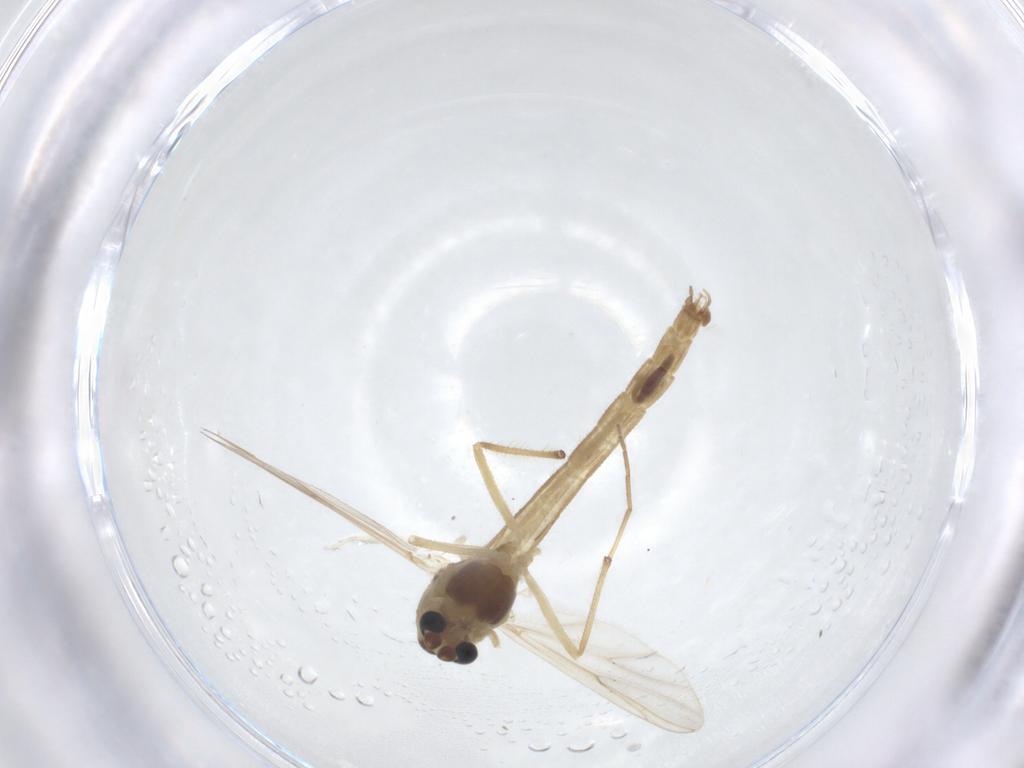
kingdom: Animalia
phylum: Arthropoda
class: Insecta
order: Diptera
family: Chironomidae
